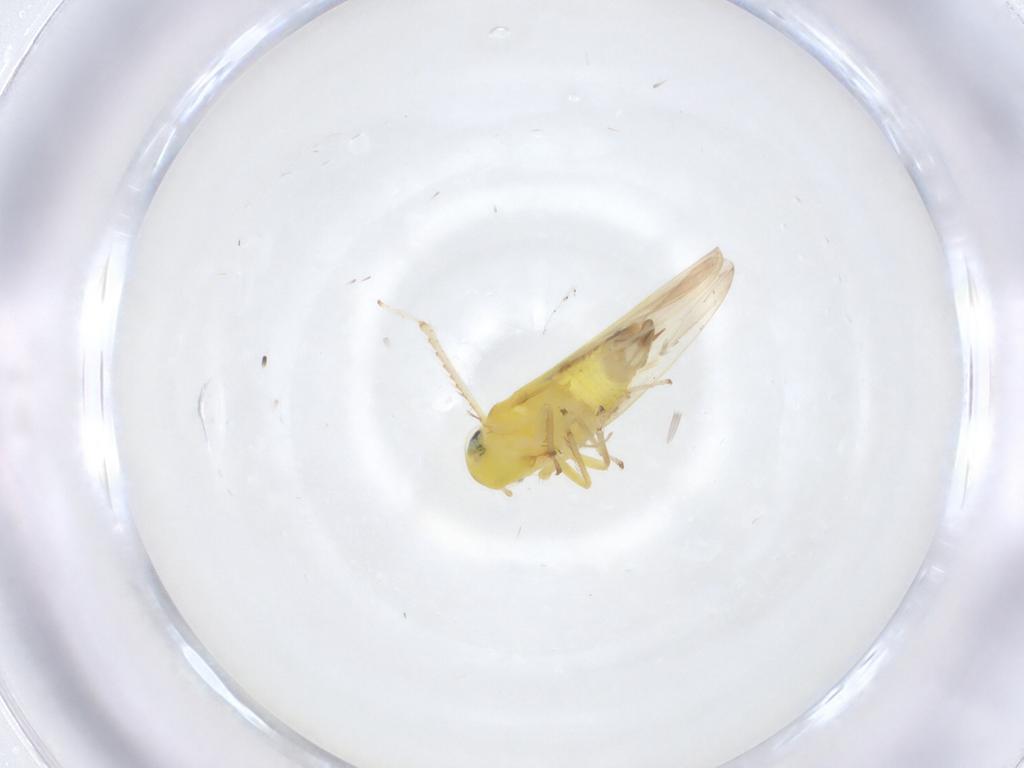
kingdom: Animalia
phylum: Arthropoda
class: Insecta
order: Hemiptera
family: Cicadellidae
